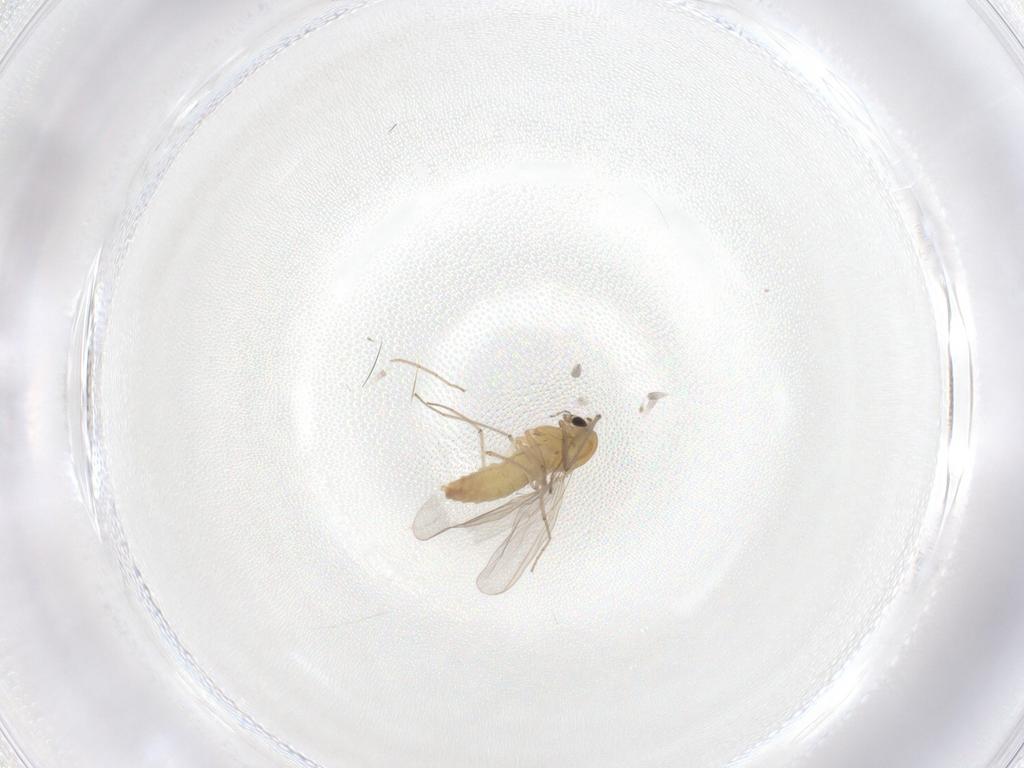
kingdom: Animalia
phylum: Arthropoda
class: Insecta
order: Diptera
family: Chironomidae
